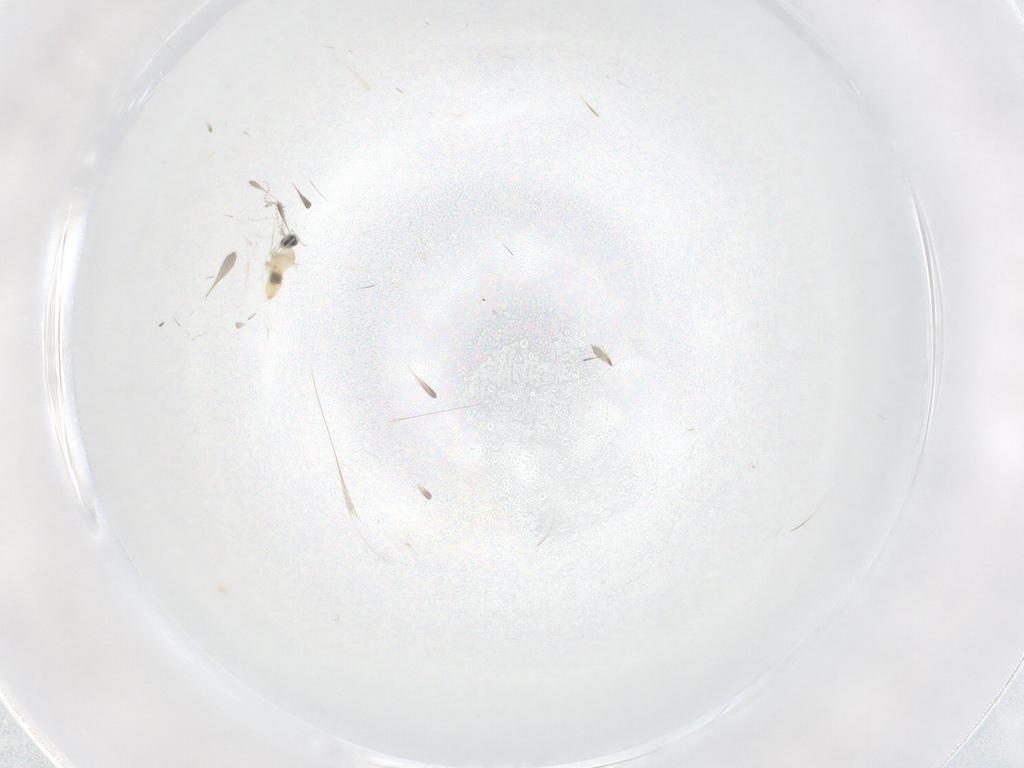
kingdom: Animalia
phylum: Arthropoda
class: Insecta
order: Diptera
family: Cecidomyiidae
